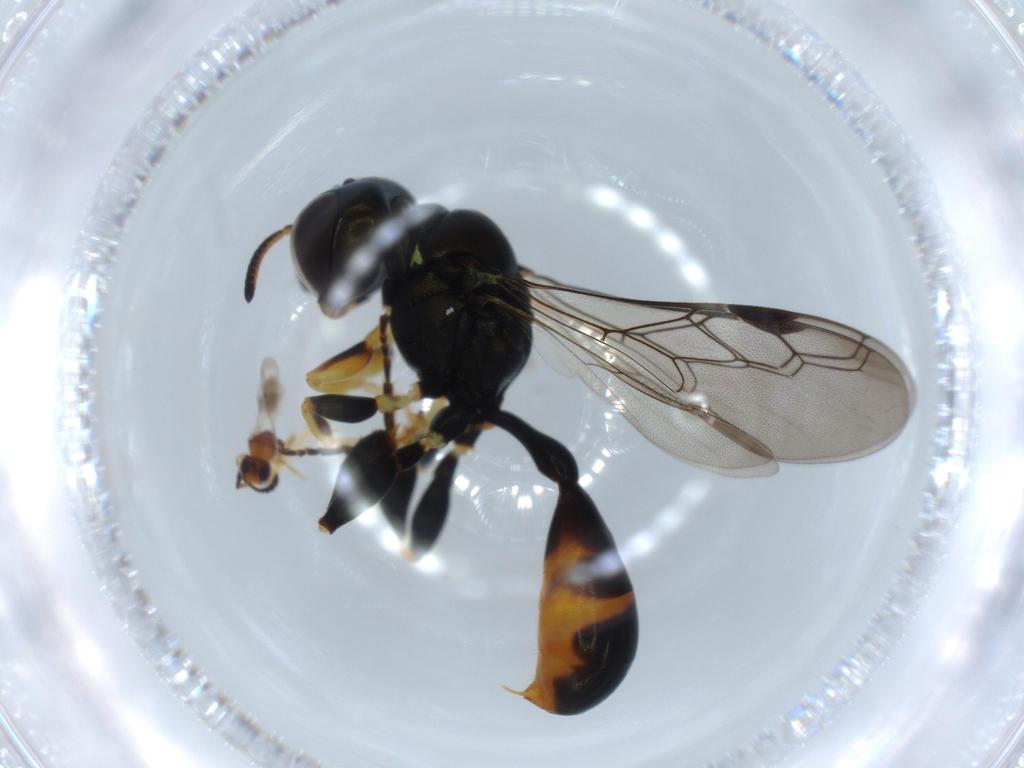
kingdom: Animalia
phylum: Arthropoda
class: Insecta
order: Hymenoptera
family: Crabronidae
